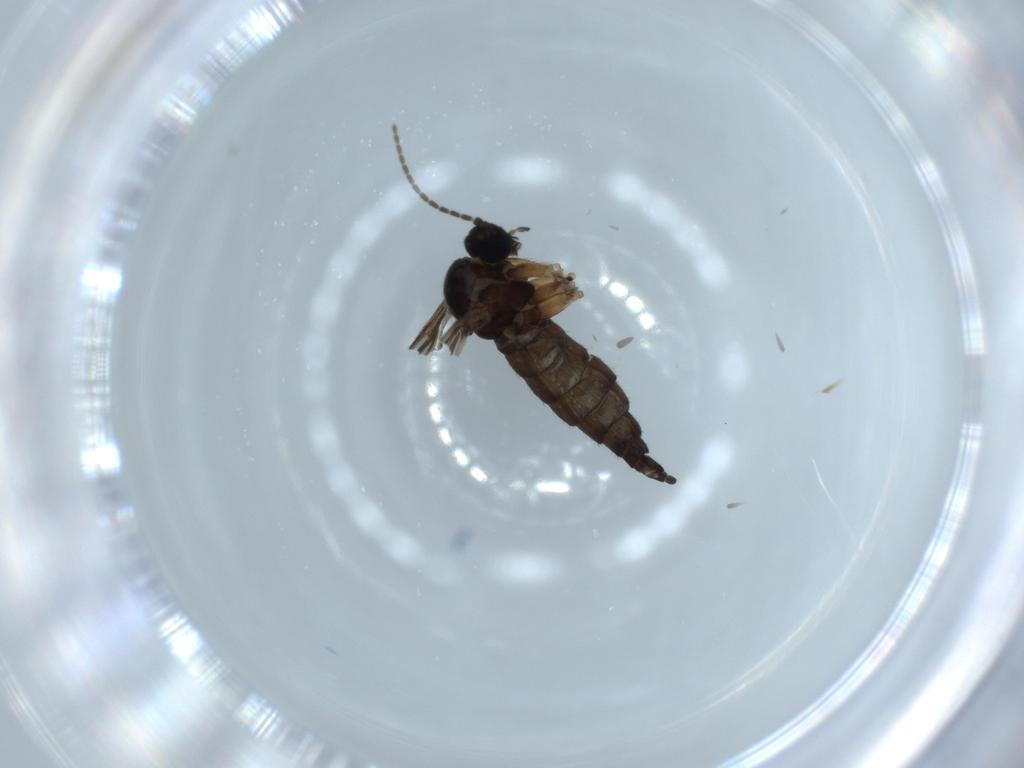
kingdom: Animalia
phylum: Arthropoda
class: Insecta
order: Diptera
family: Sciaridae
